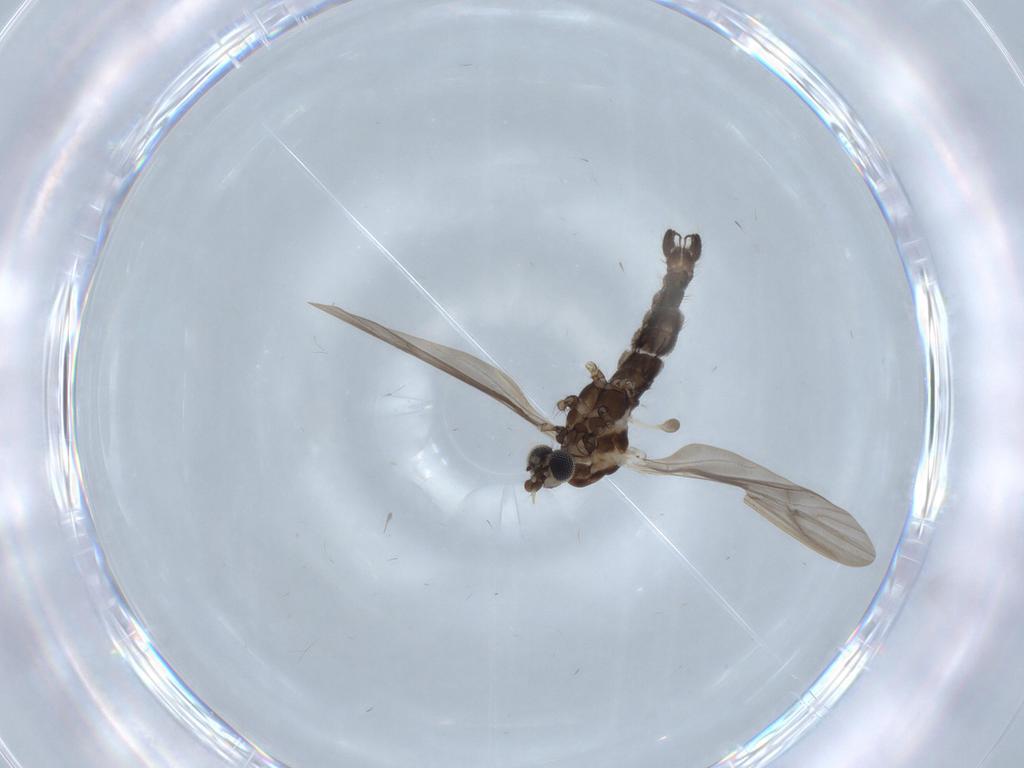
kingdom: Animalia
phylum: Arthropoda
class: Insecta
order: Diptera
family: Limoniidae
